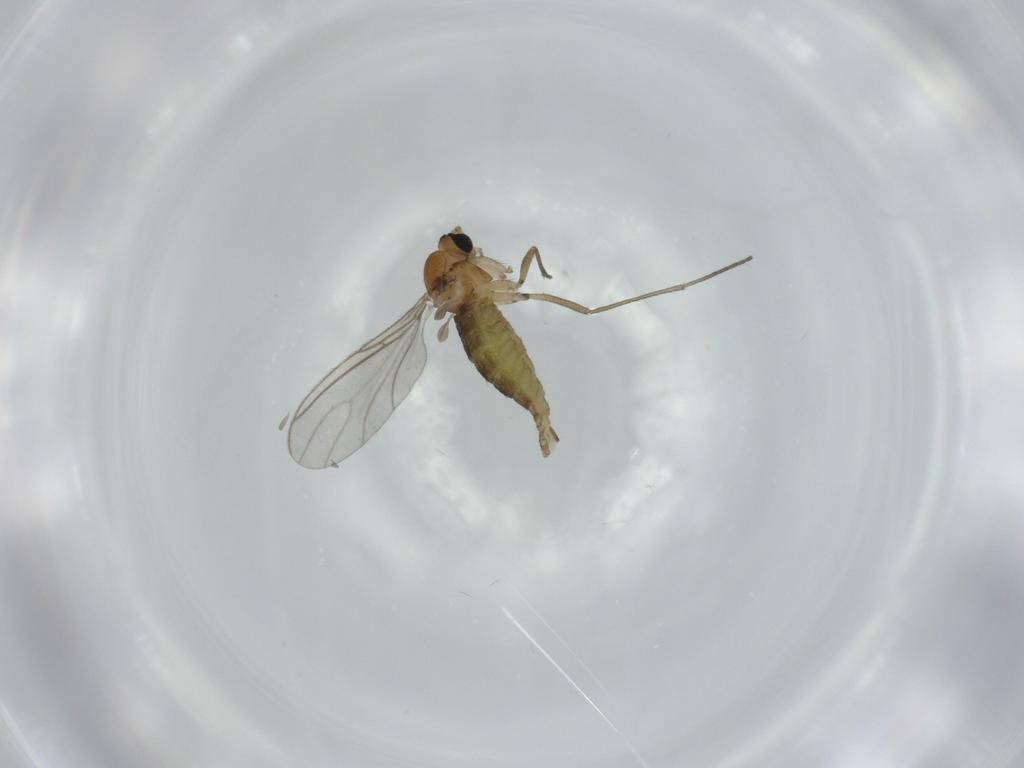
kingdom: Animalia
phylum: Arthropoda
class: Insecta
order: Diptera
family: Sciaridae
